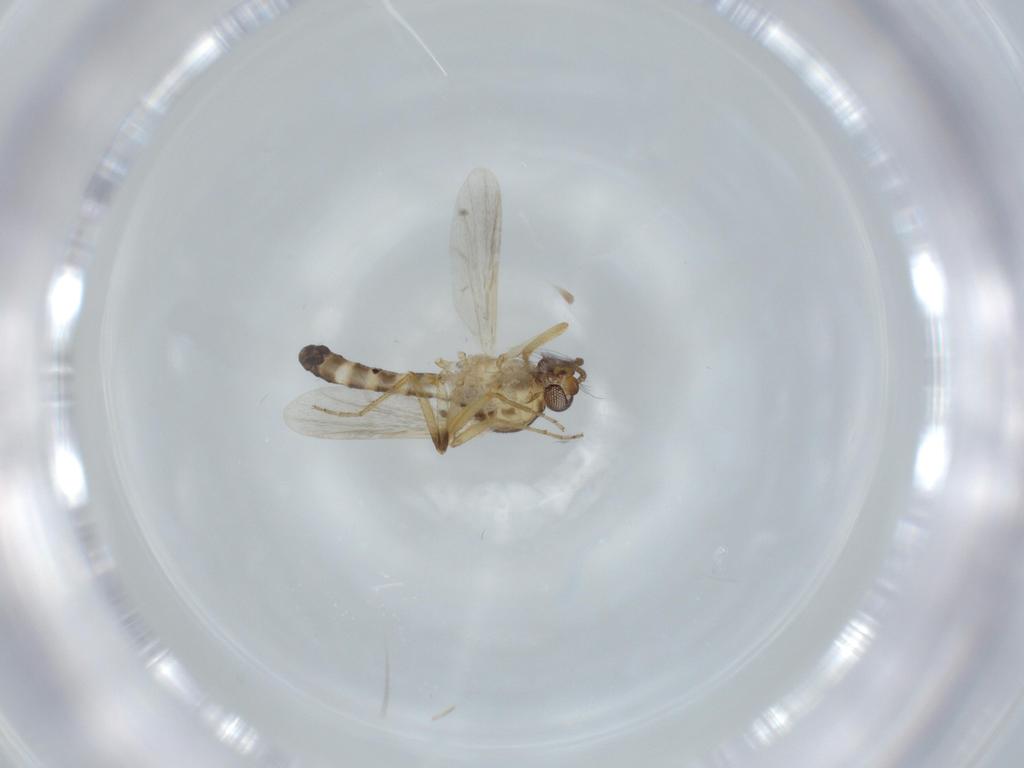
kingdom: Animalia
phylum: Arthropoda
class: Insecta
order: Diptera
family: Ceratopogonidae
